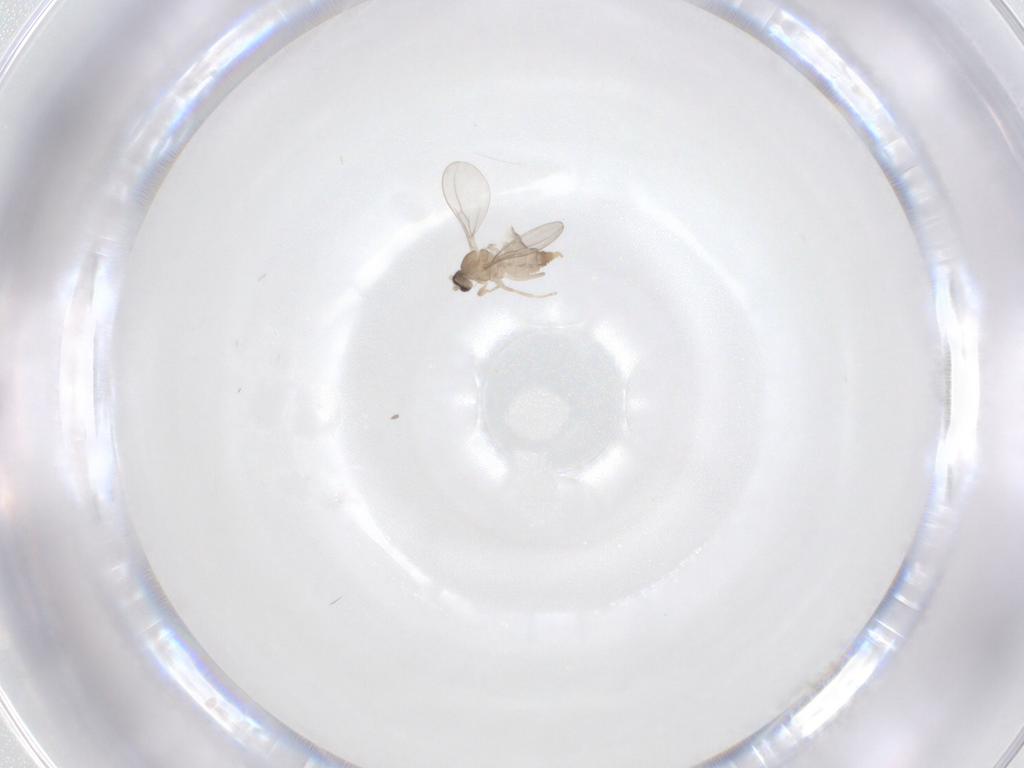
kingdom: Animalia
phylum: Arthropoda
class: Insecta
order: Diptera
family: Cecidomyiidae
